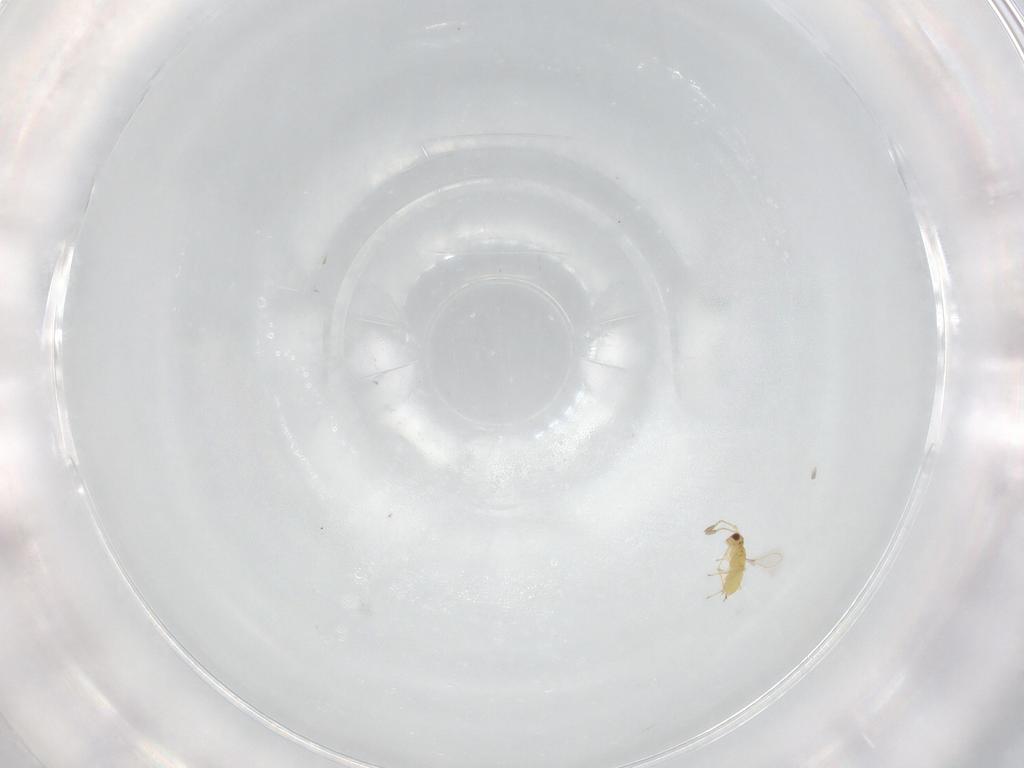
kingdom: Animalia
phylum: Arthropoda
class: Insecta
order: Hymenoptera
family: Mymaridae
